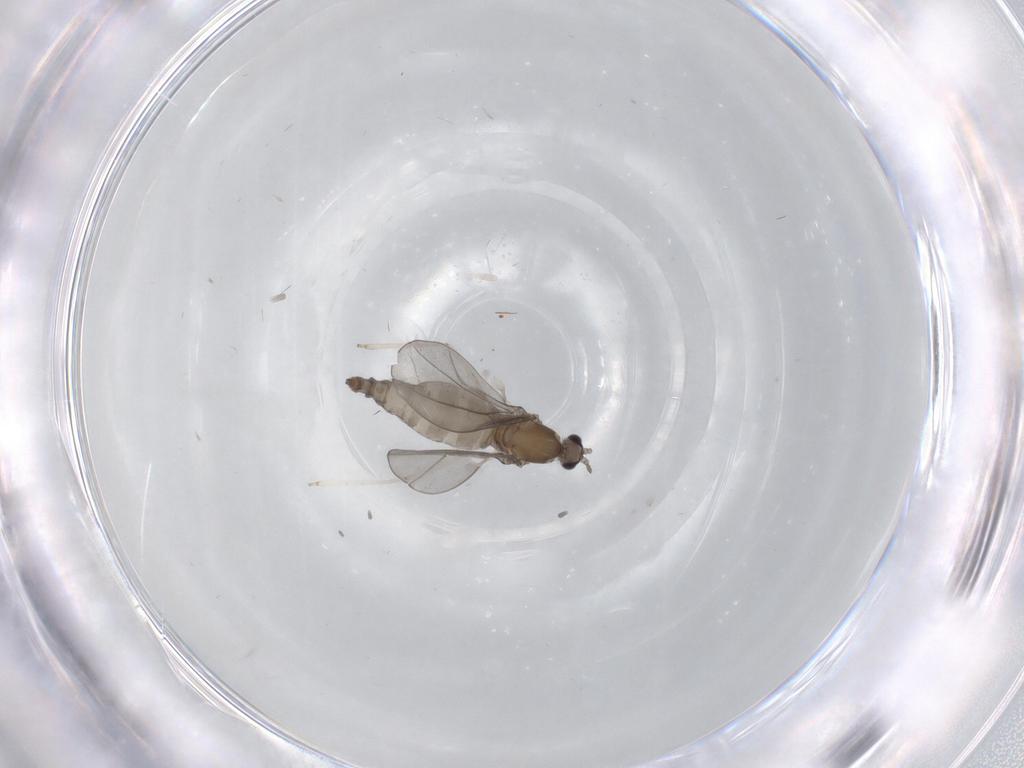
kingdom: Animalia
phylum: Arthropoda
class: Insecta
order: Diptera
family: Cecidomyiidae
